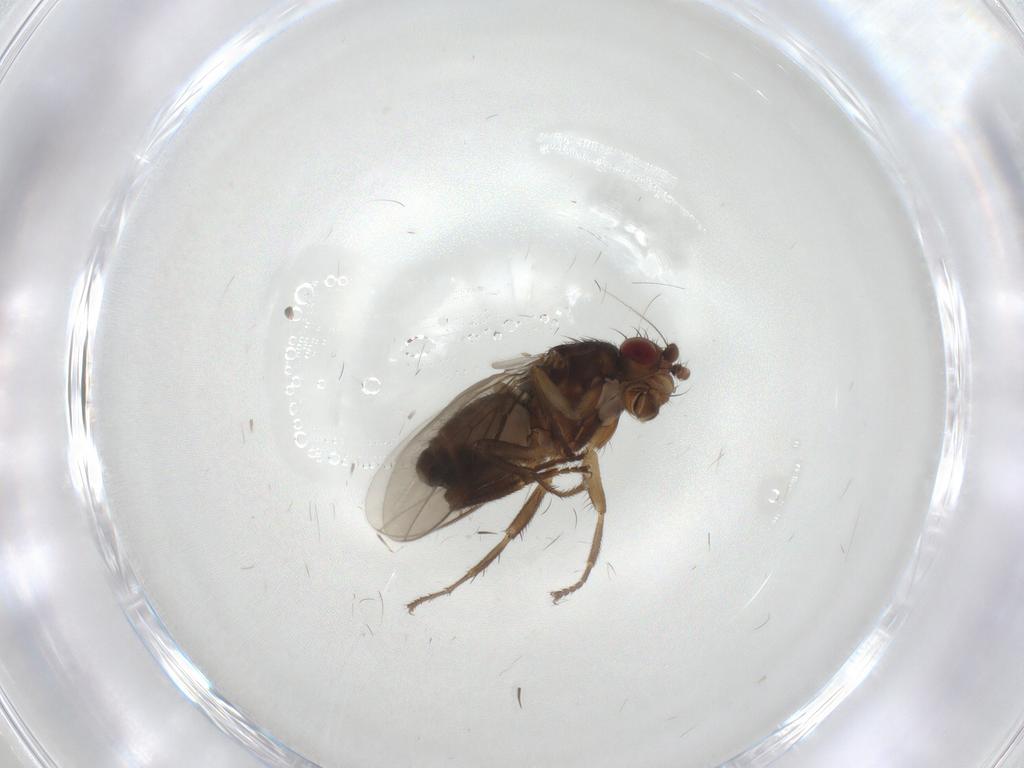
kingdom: Animalia
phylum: Arthropoda
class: Insecta
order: Diptera
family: Sphaeroceridae
